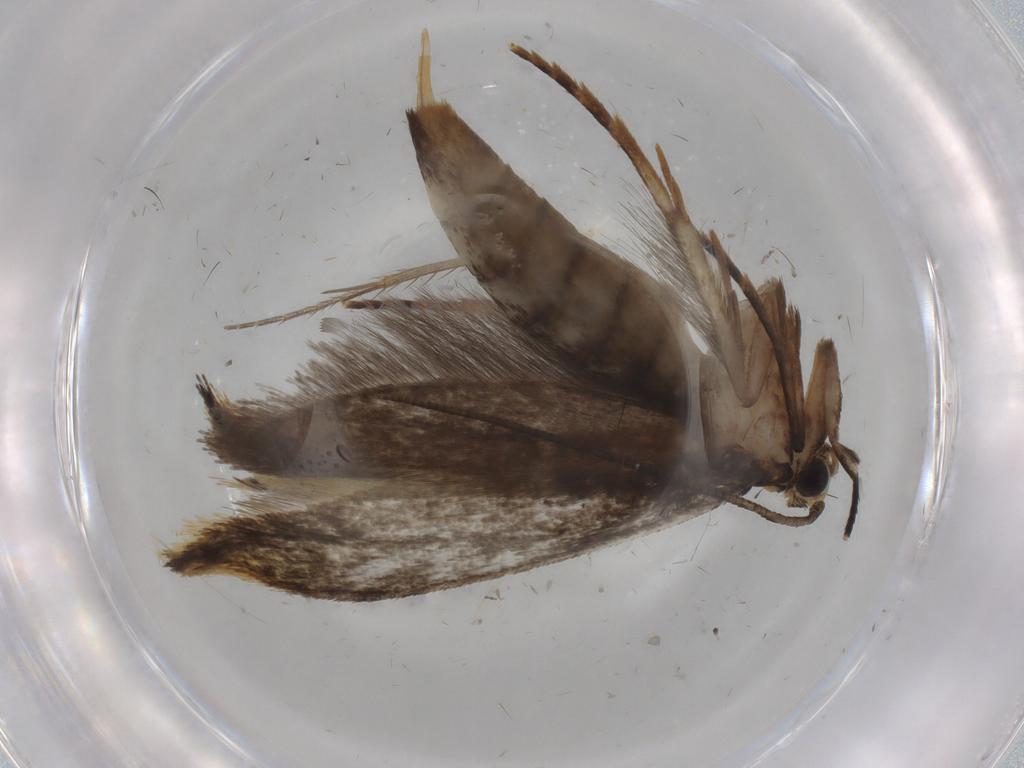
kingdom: Animalia
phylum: Arthropoda
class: Insecta
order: Lepidoptera
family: Tineidae
